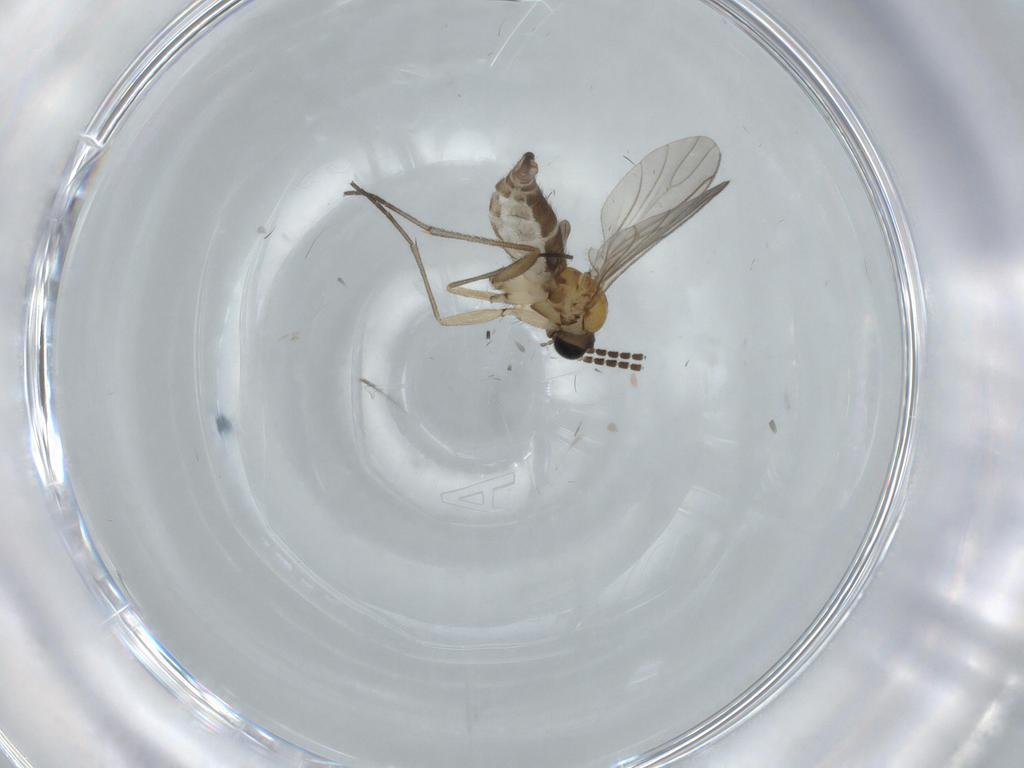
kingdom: Animalia
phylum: Arthropoda
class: Insecta
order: Diptera
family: Sciaridae
